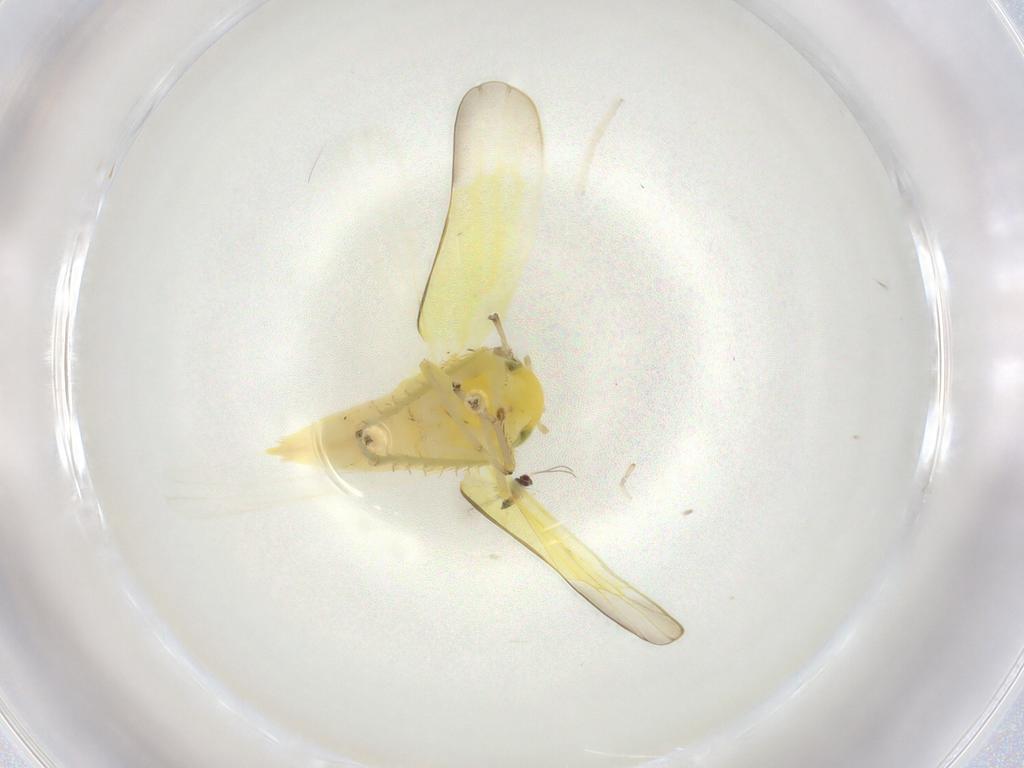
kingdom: Animalia
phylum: Arthropoda
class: Insecta
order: Hemiptera
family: Cicadellidae
